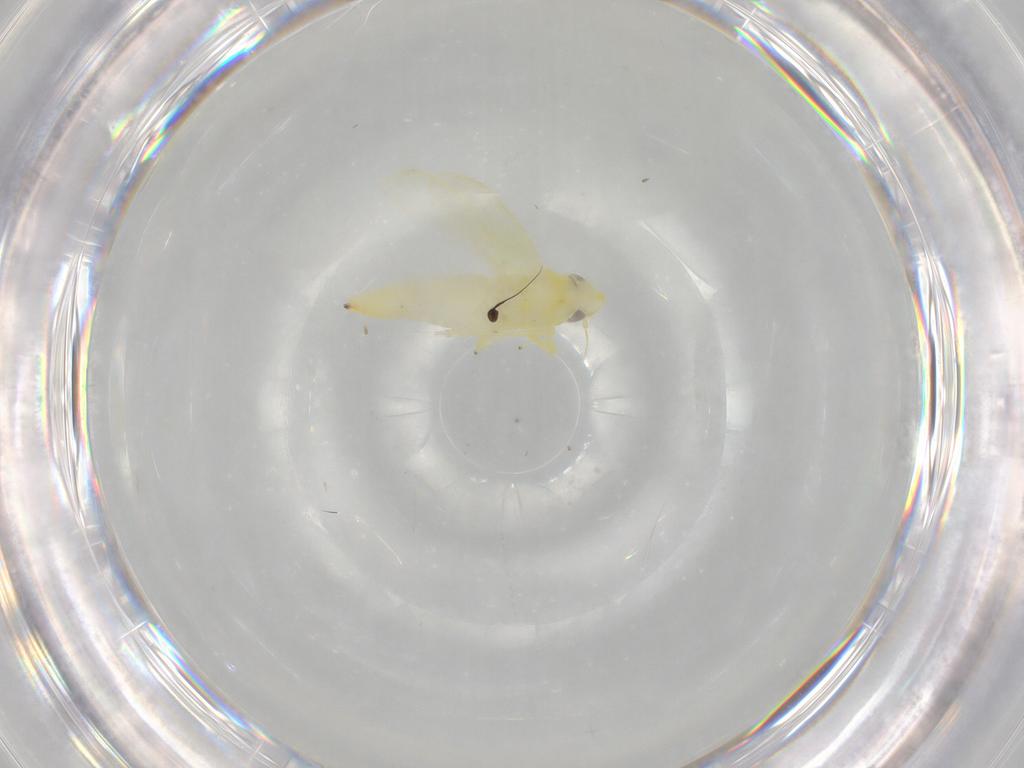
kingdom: Animalia
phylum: Arthropoda
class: Insecta
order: Hemiptera
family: Cicadellidae
